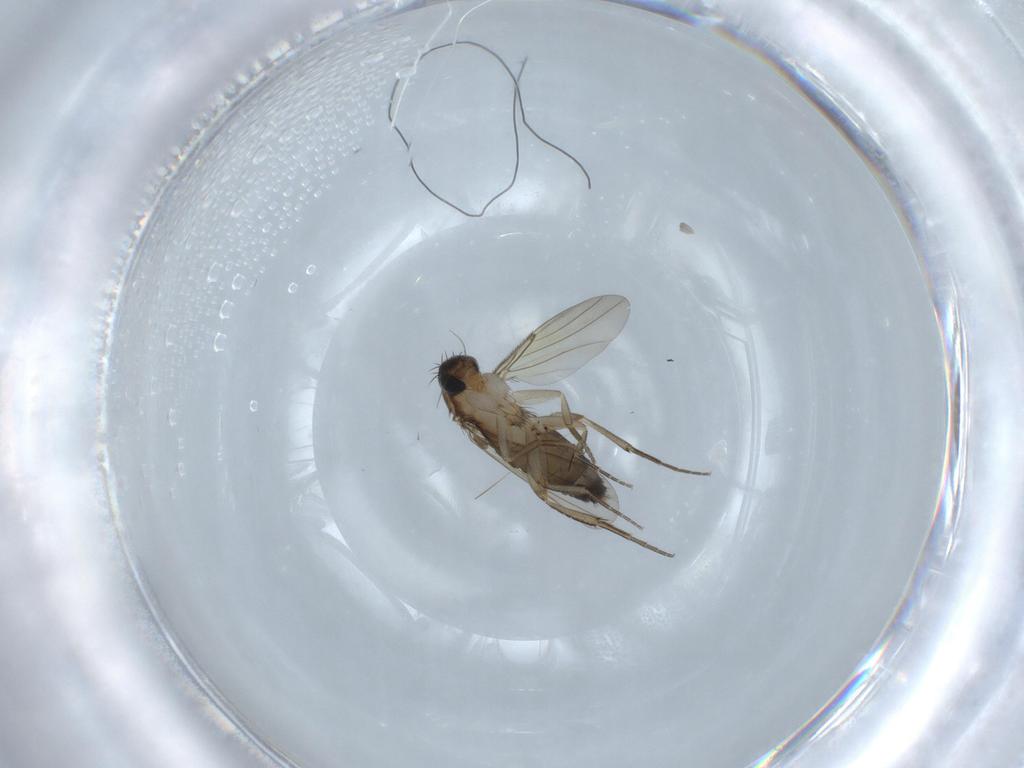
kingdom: Animalia
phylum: Arthropoda
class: Insecta
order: Diptera
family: Phoridae
